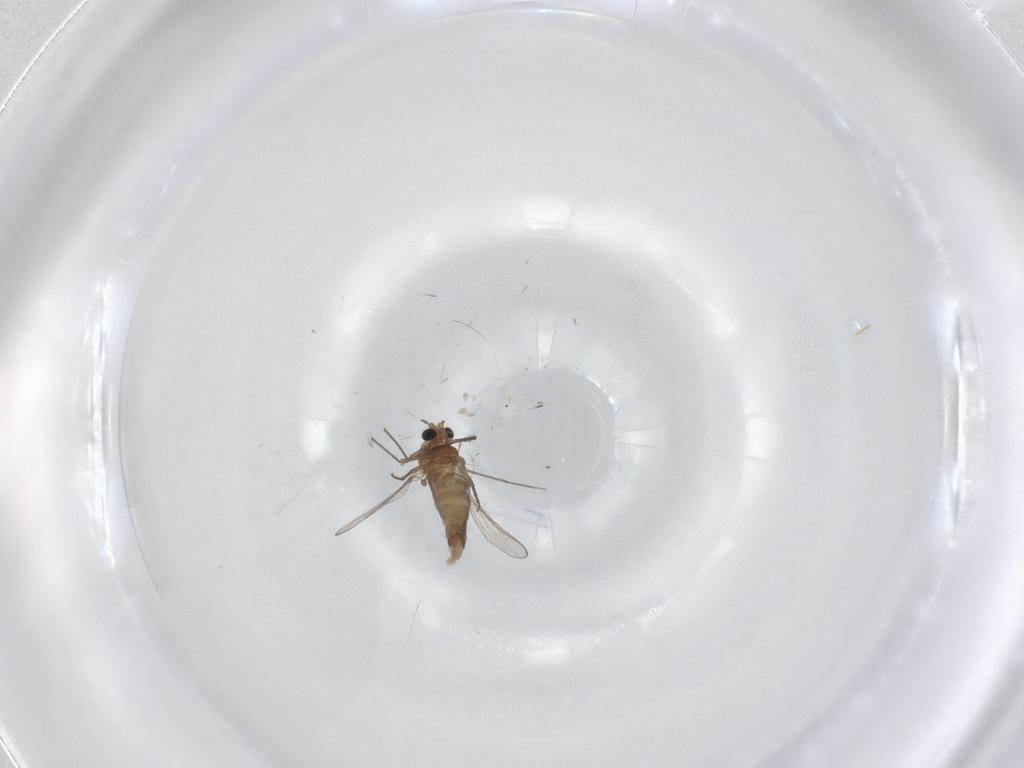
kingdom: Animalia
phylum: Arthropoda
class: Insecta
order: Diptera
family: Chironomidae
